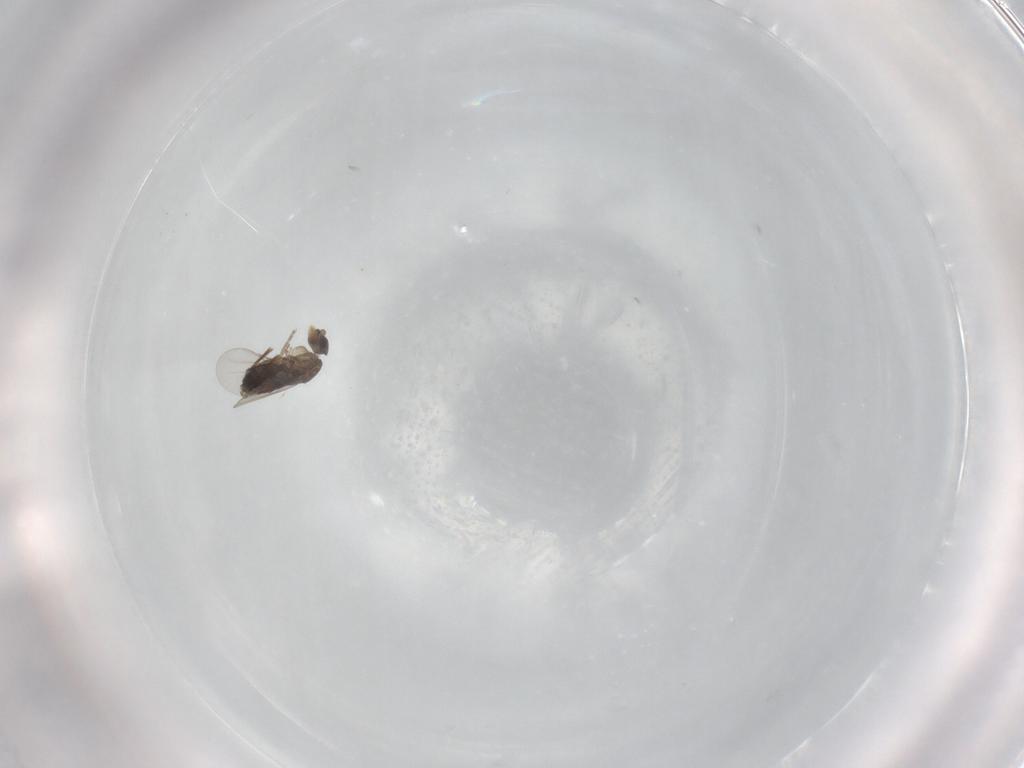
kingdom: Animalia
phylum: Arthropoda
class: Insecta
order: Diptera
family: Phoridae
